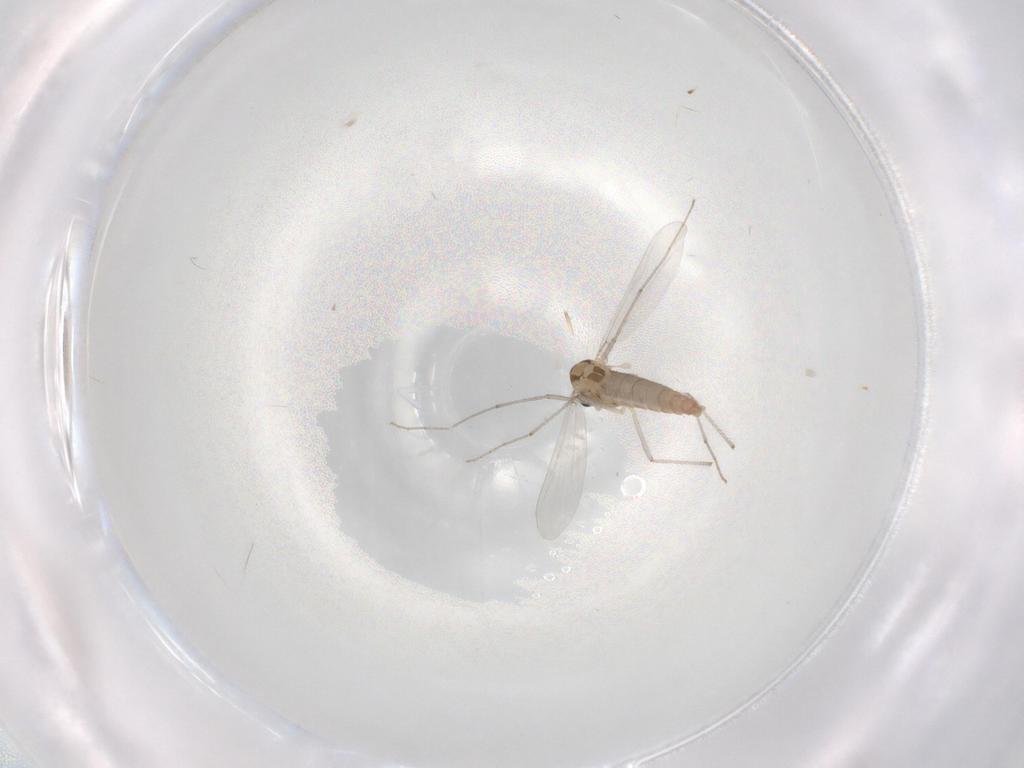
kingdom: Animalia
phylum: Arthropoda
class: Insecta
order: Diptera
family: Chironomidae
